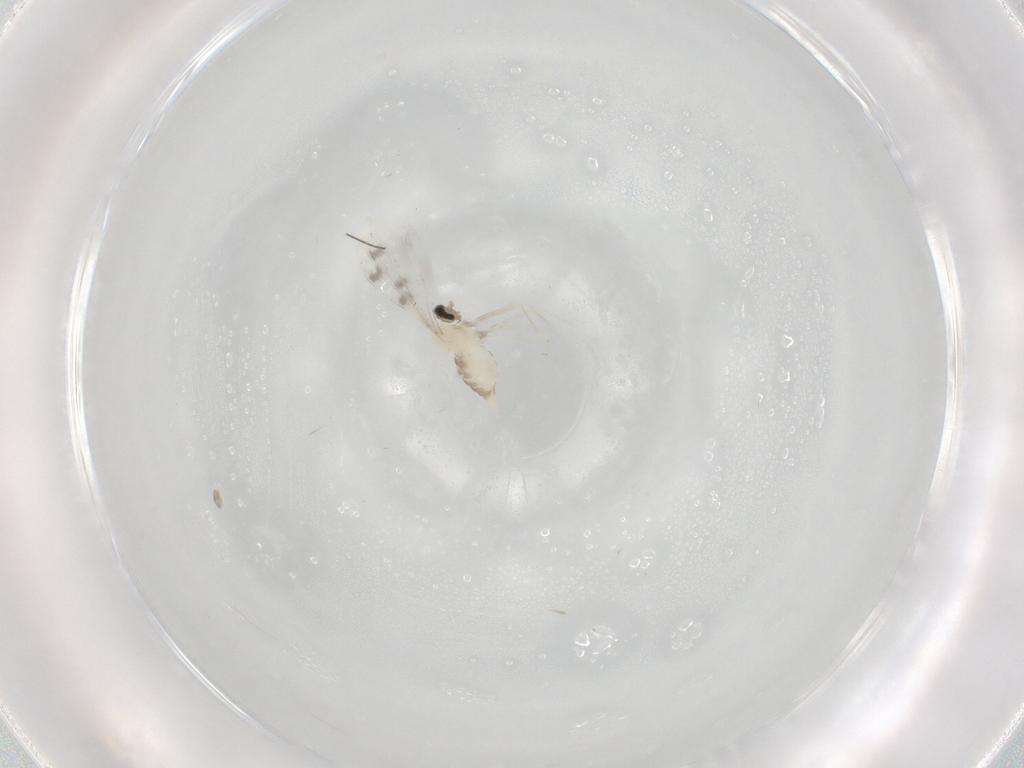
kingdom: Animalia
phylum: Arthropoda
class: Insecta
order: Diptera
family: Cecidomyiidae
